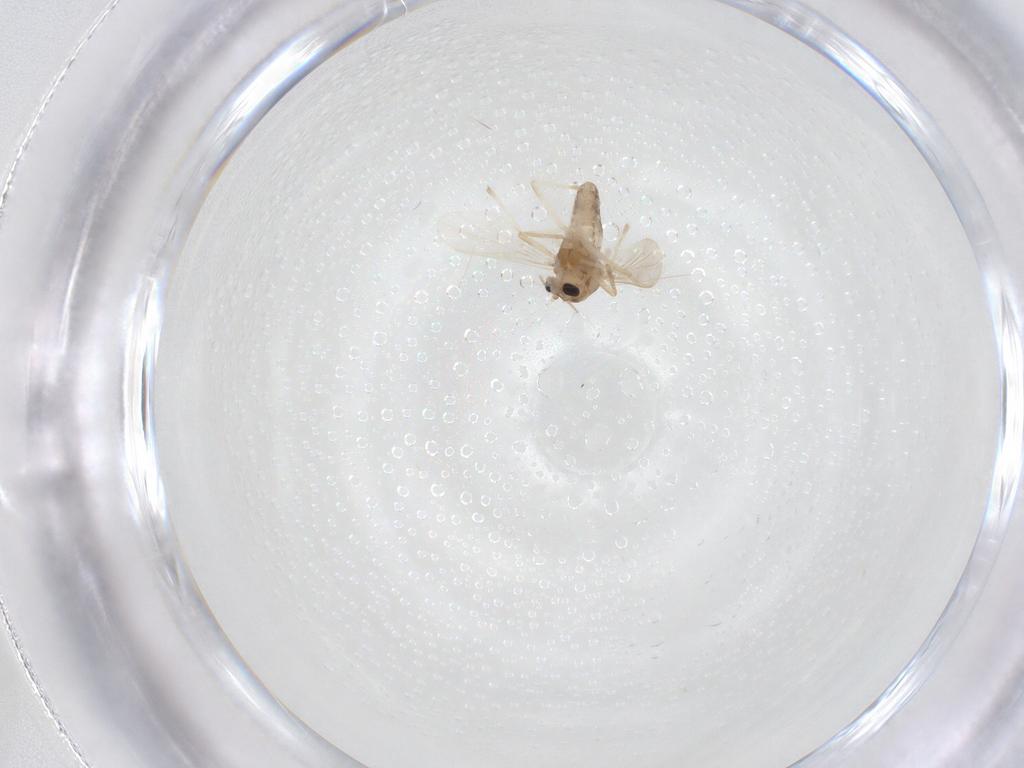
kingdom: Animalia
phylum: Arthropoda
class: Insecta
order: Diptera
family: Chironomidae
